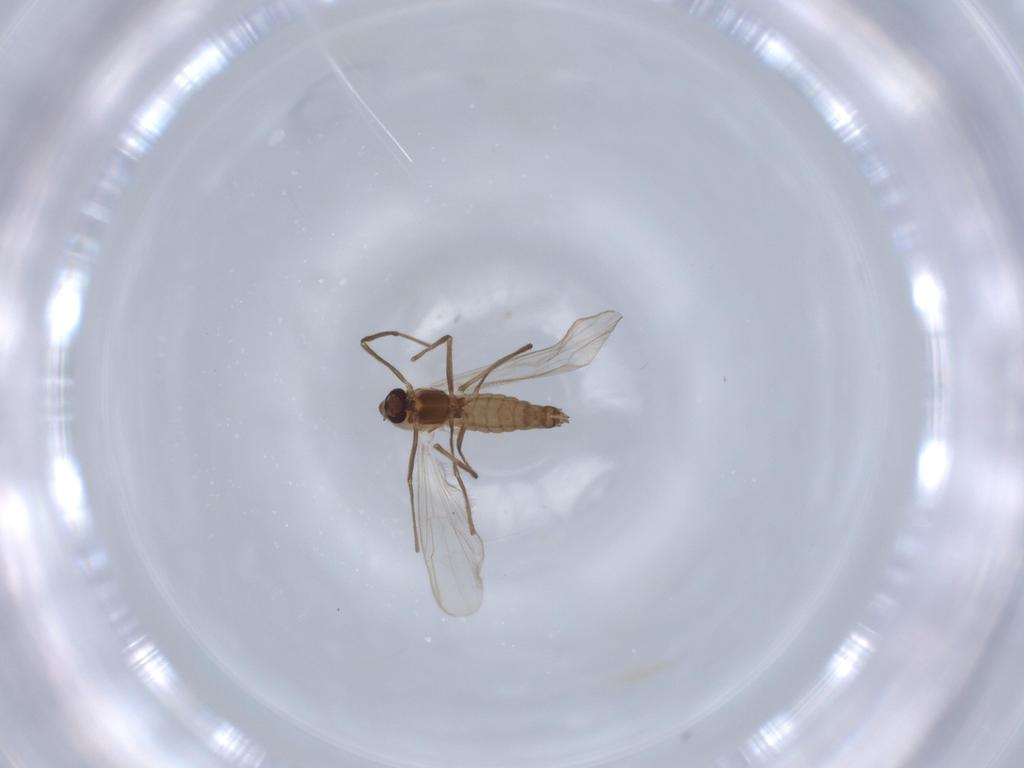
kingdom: Animalia
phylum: Arthropoda
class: Insecta
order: Diptera
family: Chironomidae
